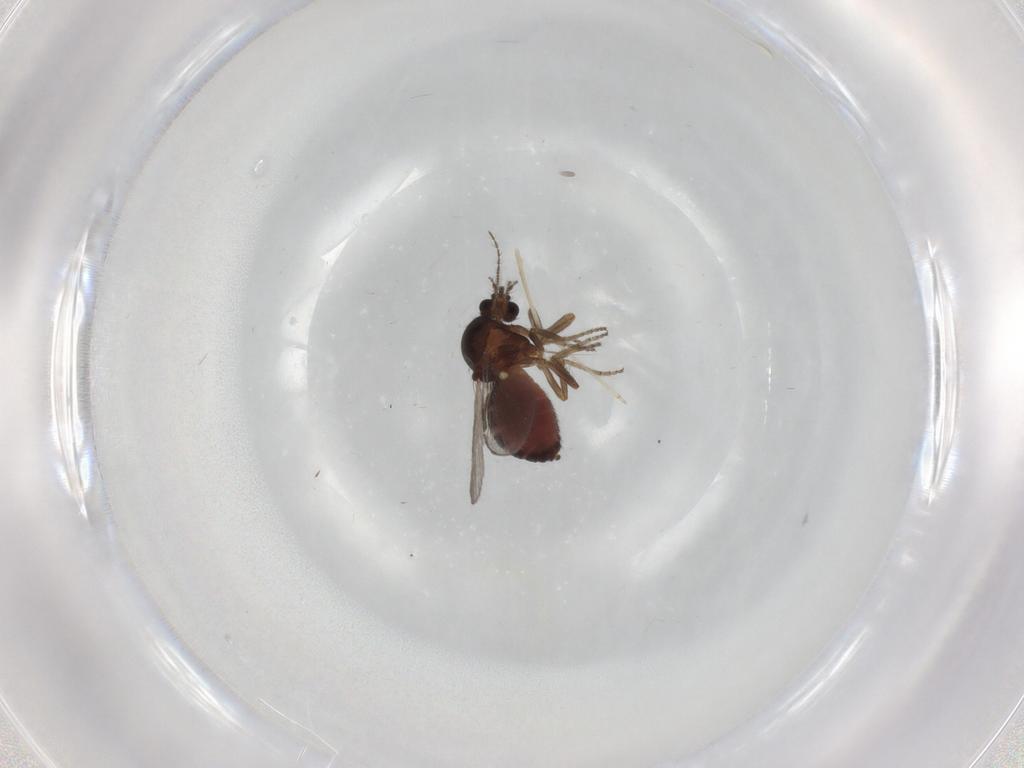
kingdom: Animalia
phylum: Arthropoda
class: Insecta
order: Diptera
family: Ceratopogonidae
